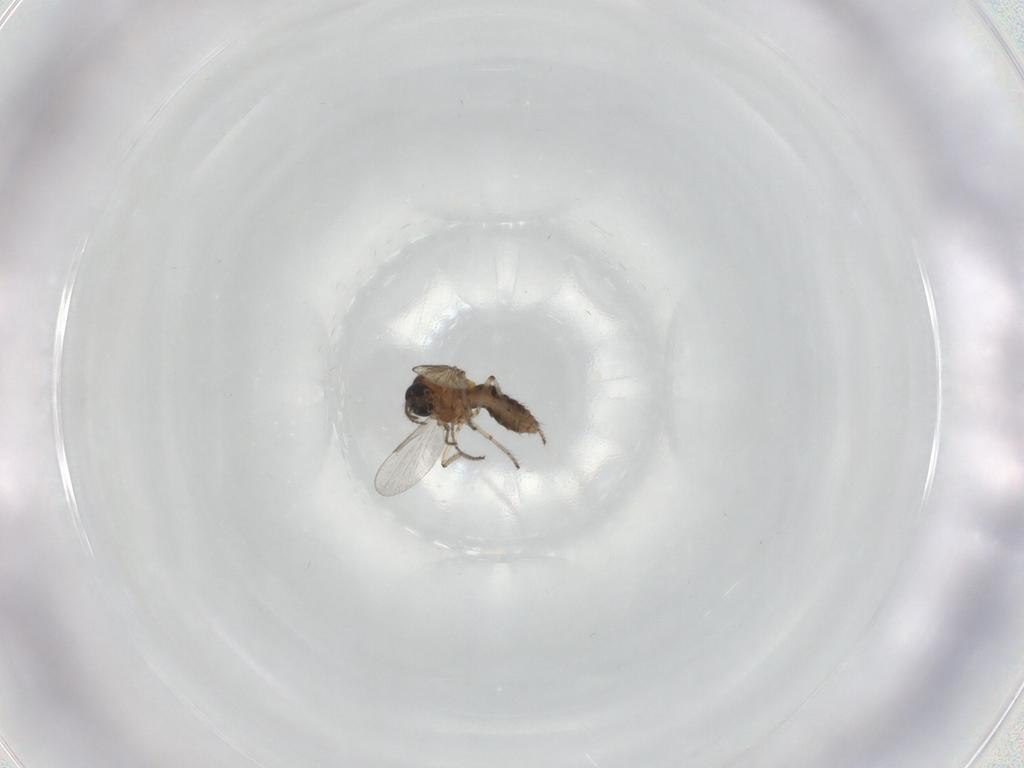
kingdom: Animalia
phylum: Arthropoda
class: Insecta
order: Diptera
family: Ceratopogonidae
